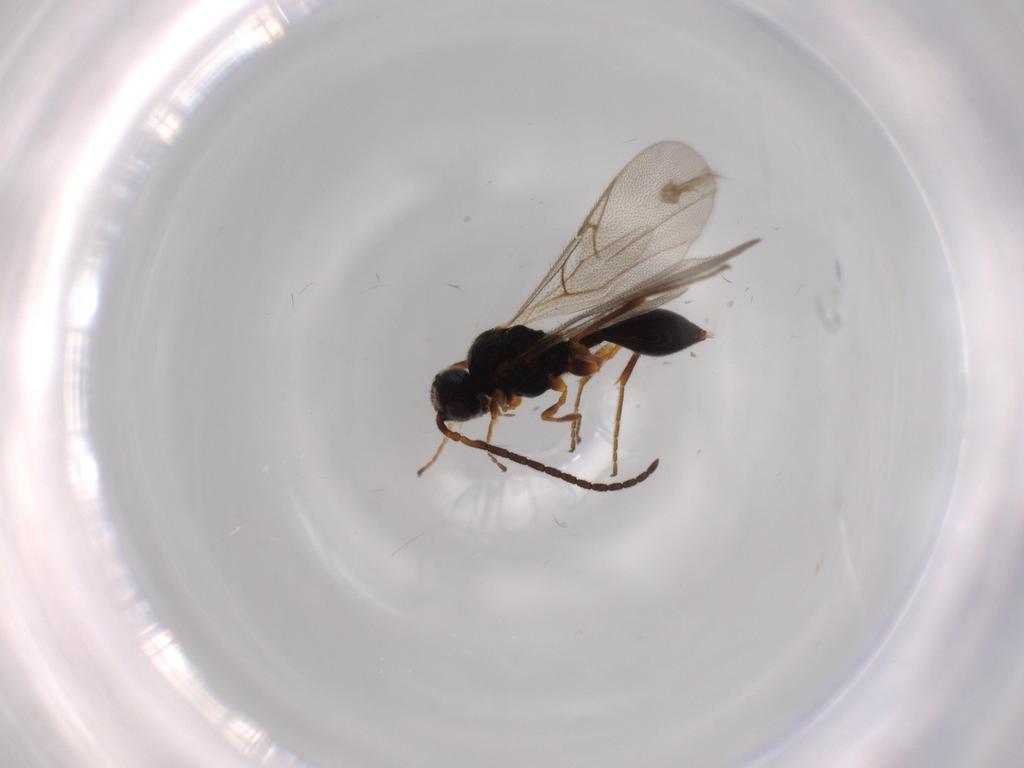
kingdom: Animalia
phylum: Arthropoda
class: Insecta
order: Hymenoptera
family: Diapriidae
